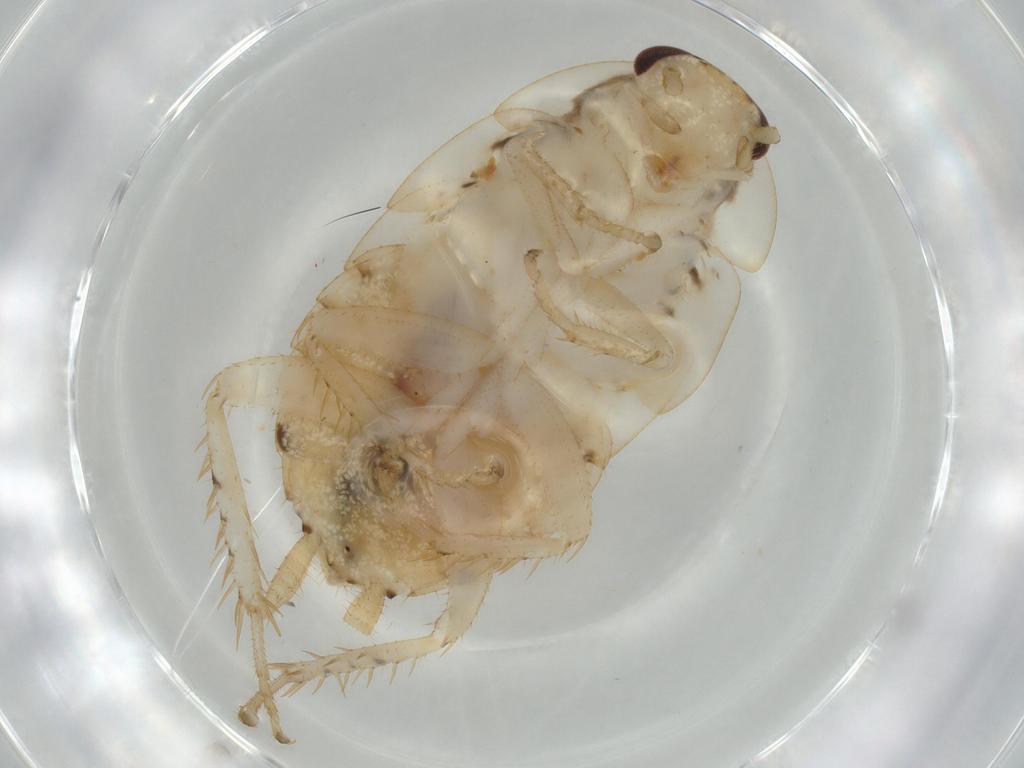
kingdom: Animalia
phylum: Arthropoda
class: Insecta
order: Blattodea
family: Ectobiidae
